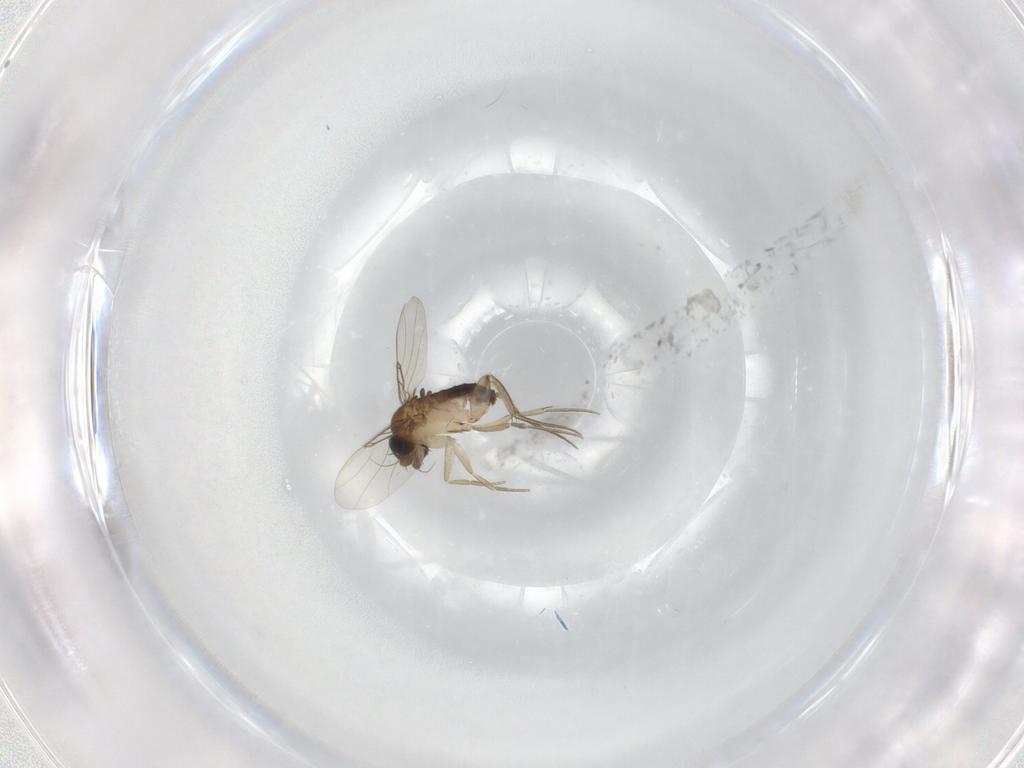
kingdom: Animalia
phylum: Arthropoda
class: Insecta
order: Diptera
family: Phoridae
